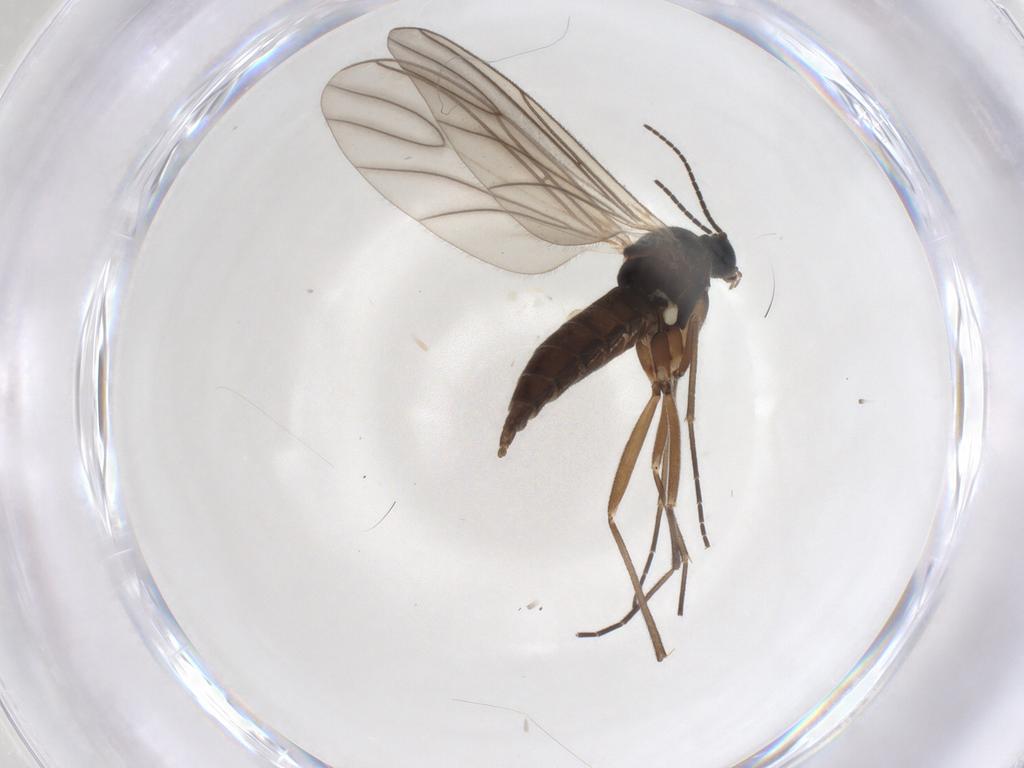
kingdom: Animalia
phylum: Arthropoda
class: Insecta
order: Diptera
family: Sciaridae
